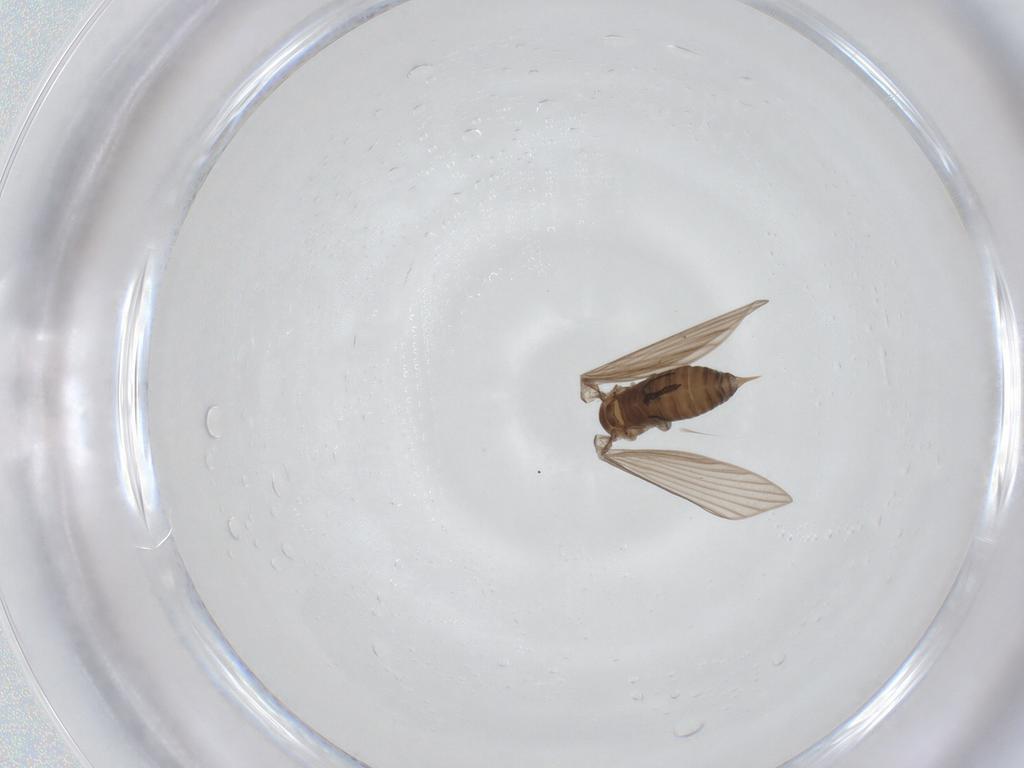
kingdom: Animalia
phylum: Arthropoda
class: Insecta
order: Diptera
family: Psychodidae
